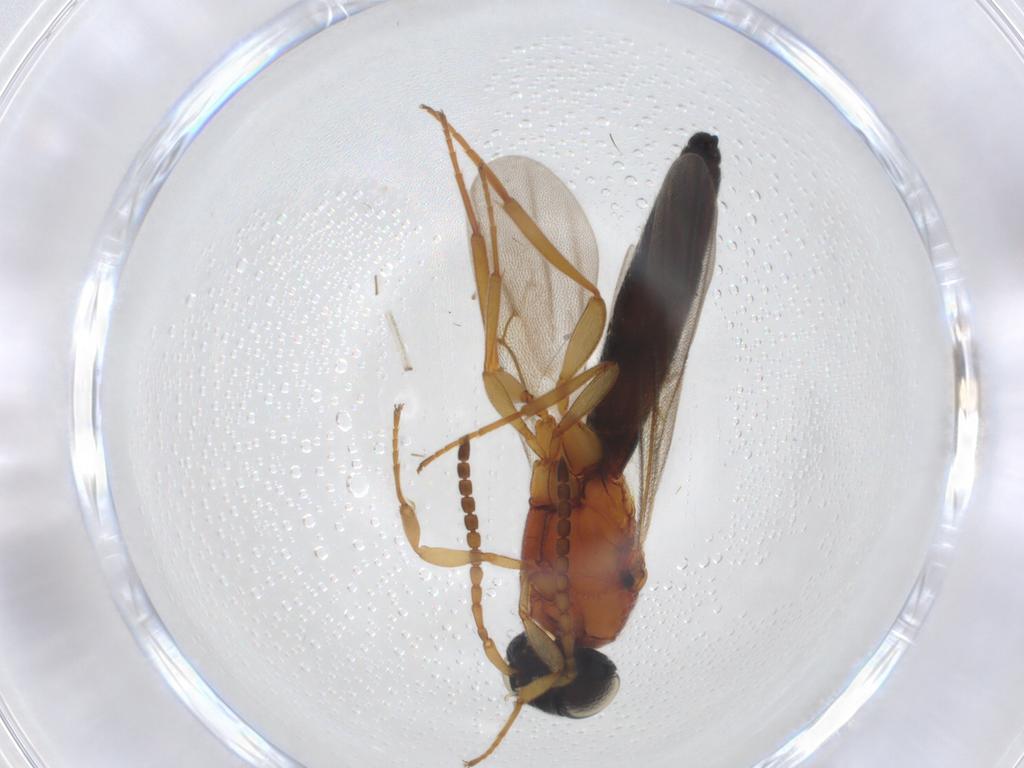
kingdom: Animalia
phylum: Arthropoda
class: Insecta
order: Hymenoptera
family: Scelionidae
